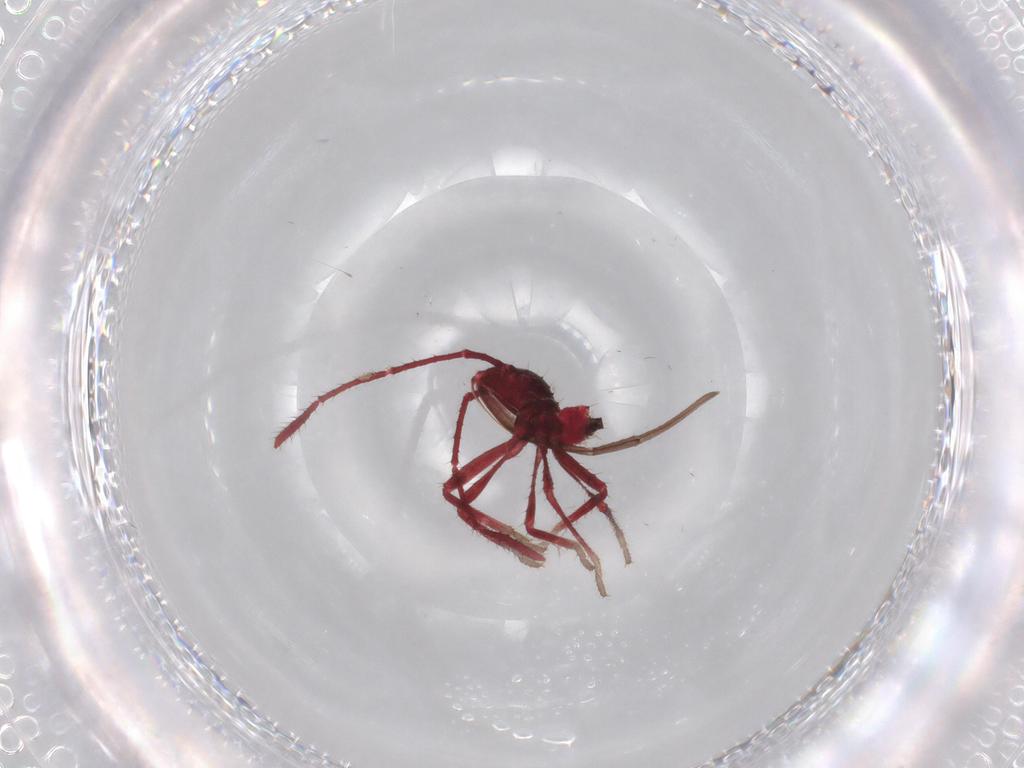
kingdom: Animalia
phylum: Arthropoda
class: Insecta
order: Hemiptera
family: Coreidae
